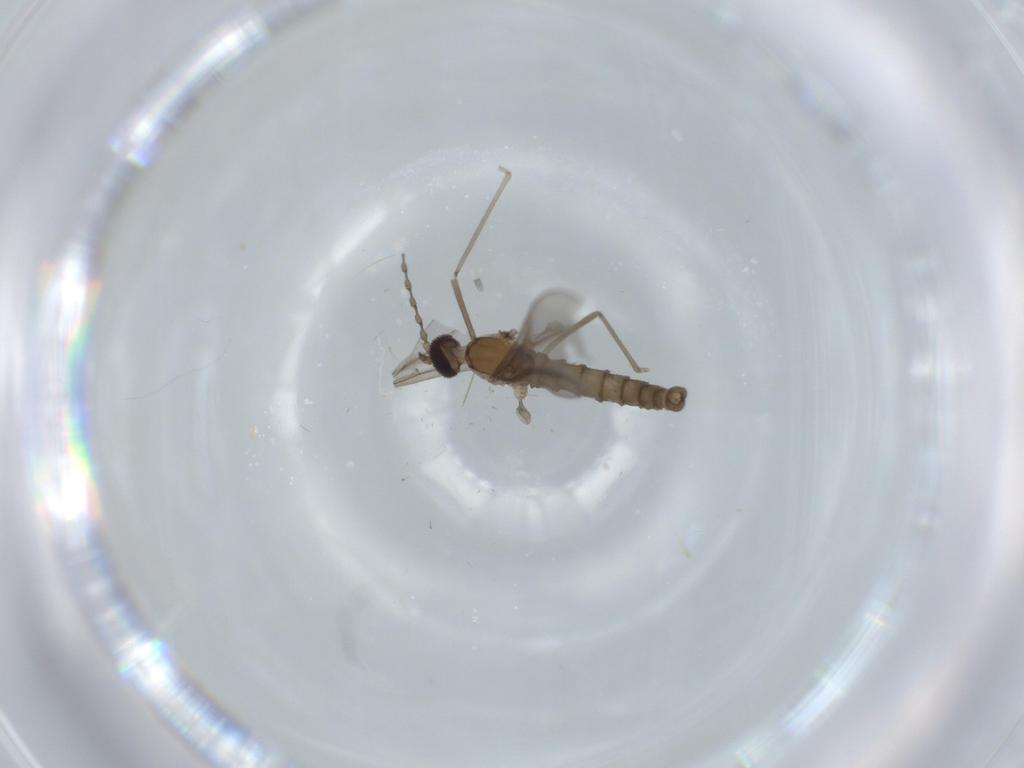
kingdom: Animalia
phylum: Arthropoda
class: Insecta
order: Diptera
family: Cecidomyiidae
